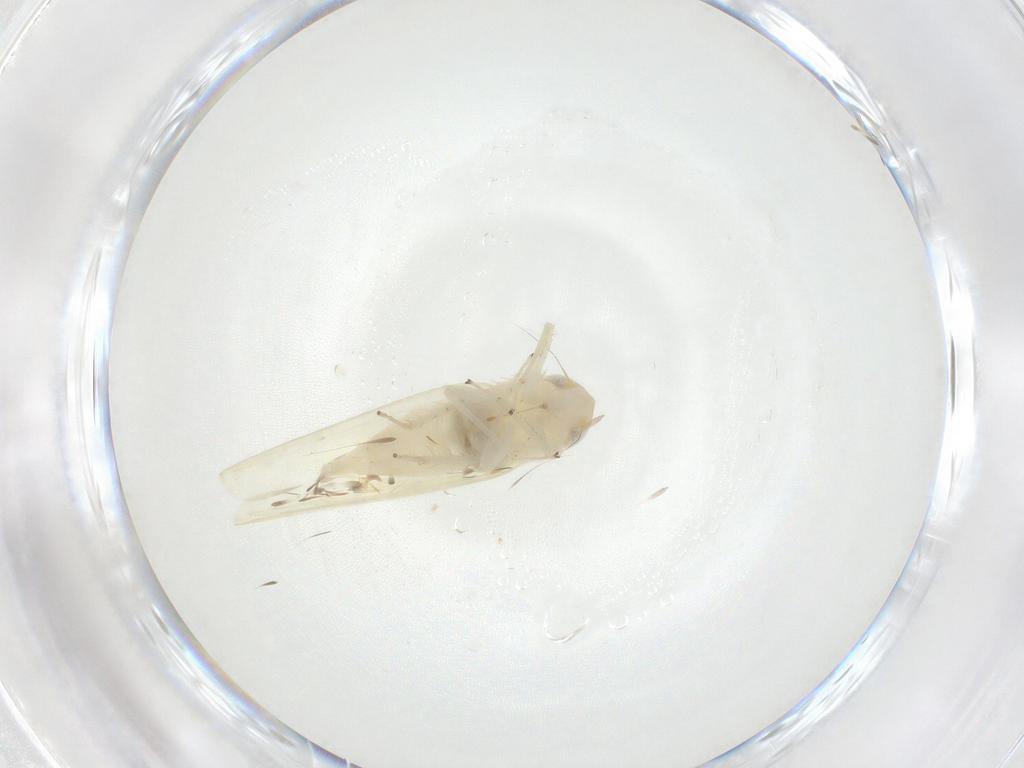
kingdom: Animalia
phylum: Arthropoda
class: Insecta
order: Hemiptera
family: Cicadellidae
